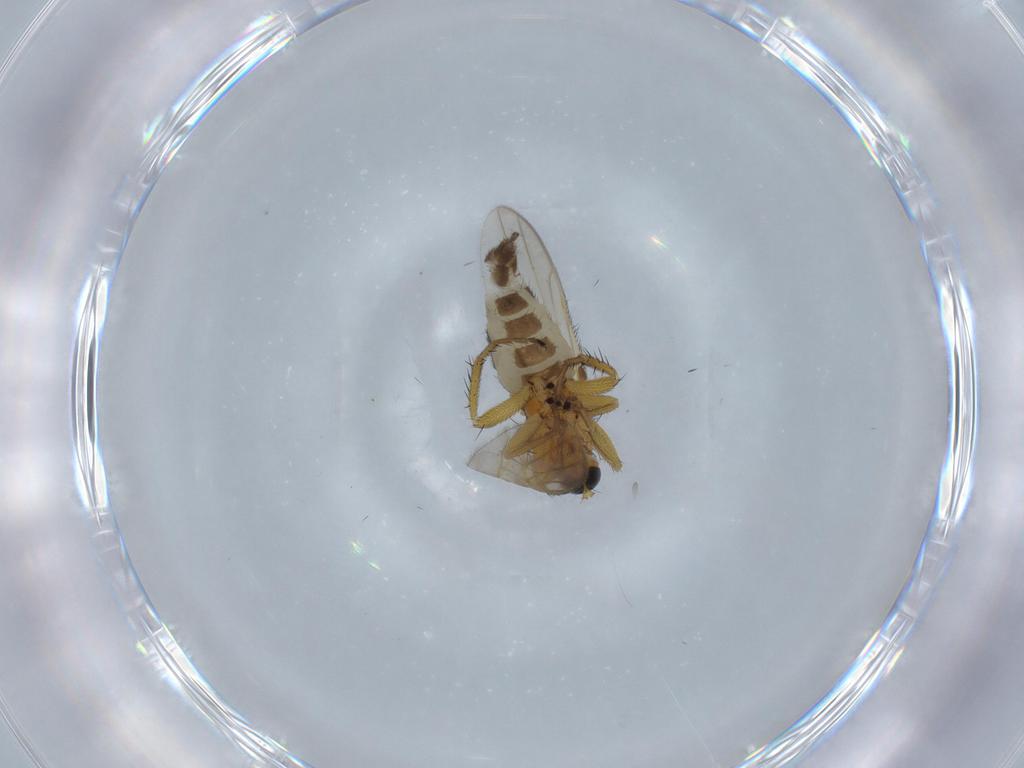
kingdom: Animalia
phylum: Arthropoda
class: Insecta
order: Diptera
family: Hybotidae
